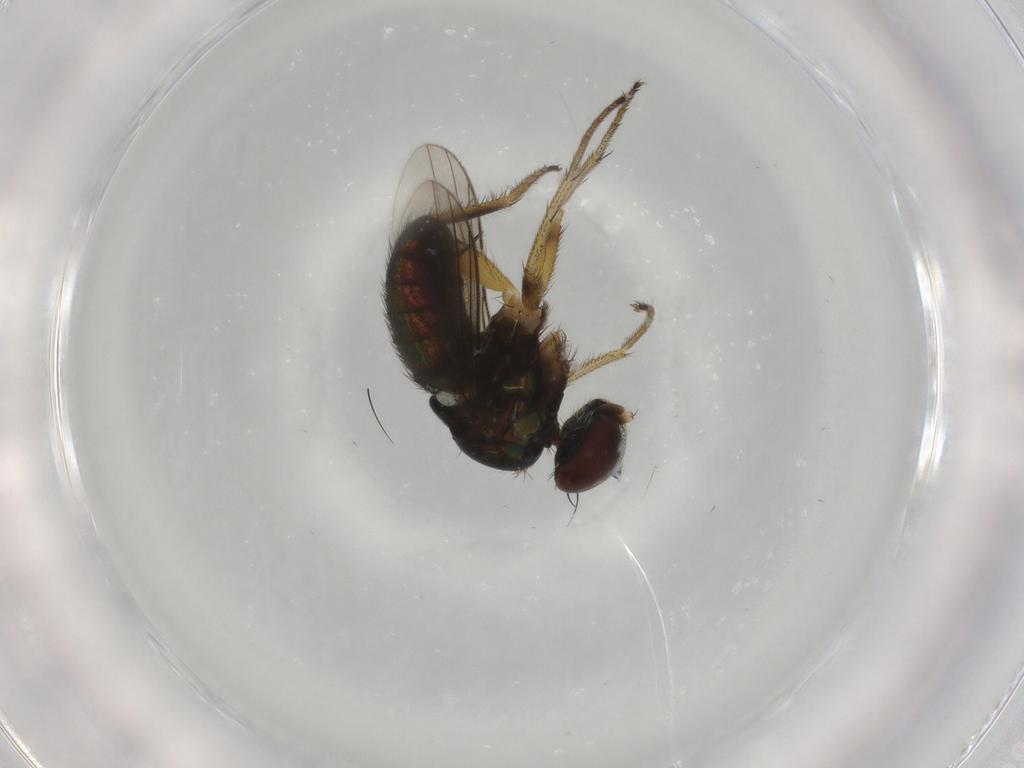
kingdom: Animalia
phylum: Arthropoda
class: Insecta
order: Diptera
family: Dolichopodidae
